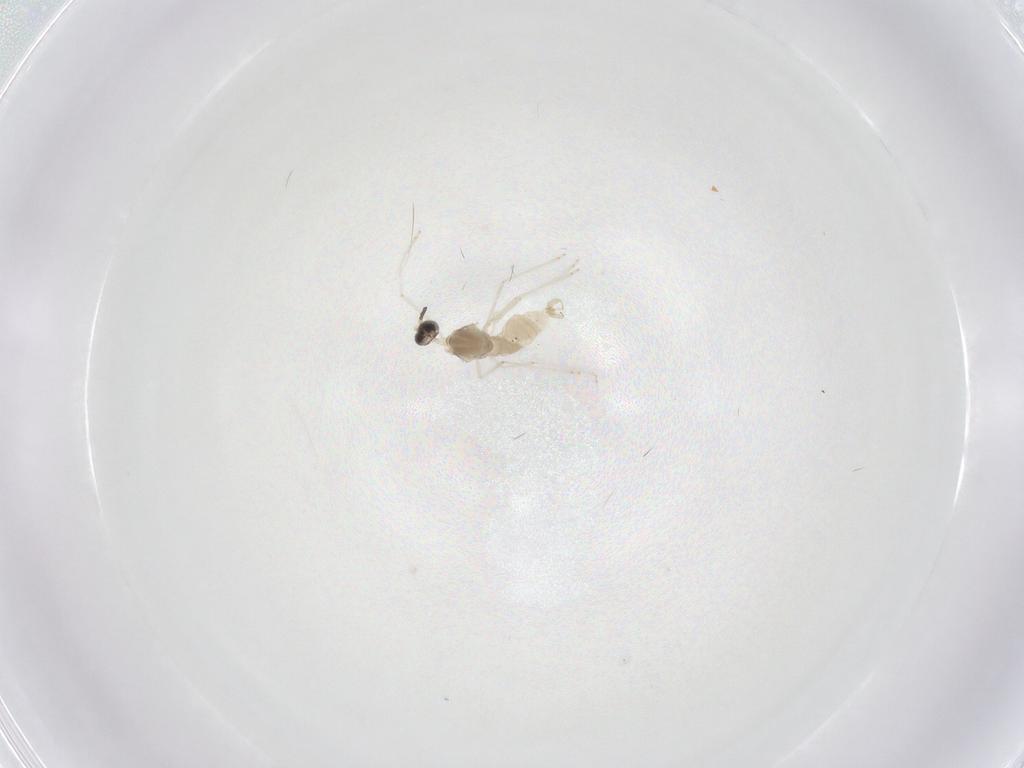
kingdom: Animalia
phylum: Arthropoda
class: Insecta
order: Diptera
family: Cecidomyiidae
